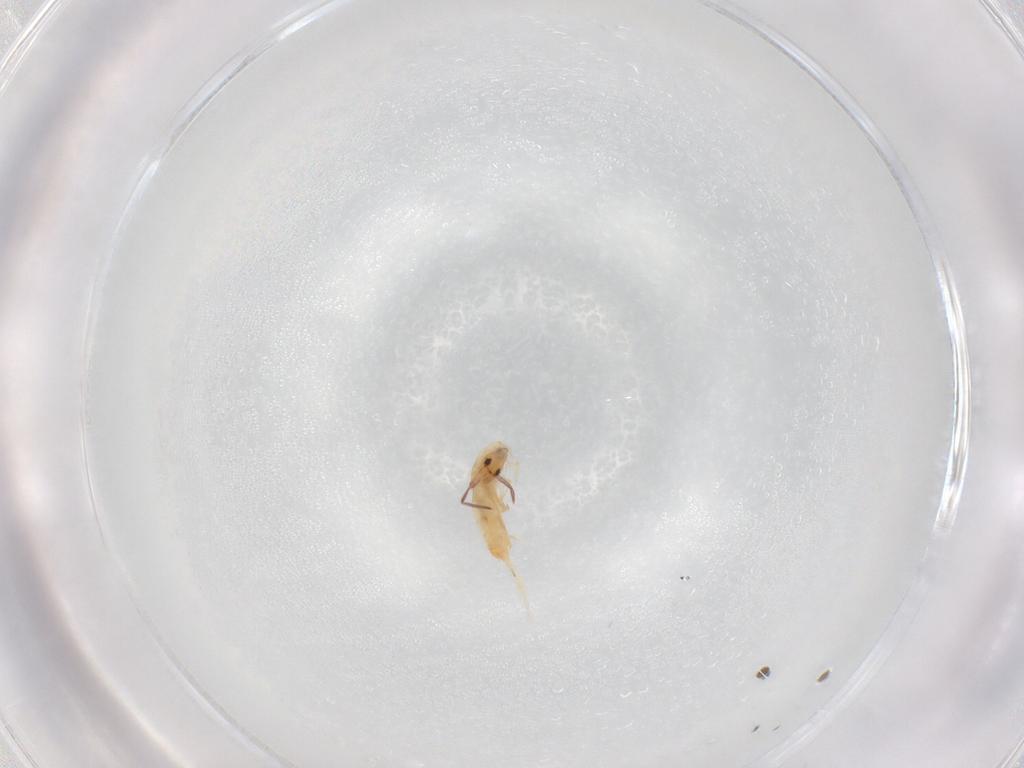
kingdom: Animalia
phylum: Arthropoda
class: Collembola
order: Entomobryomorpha
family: Entomobryidae
